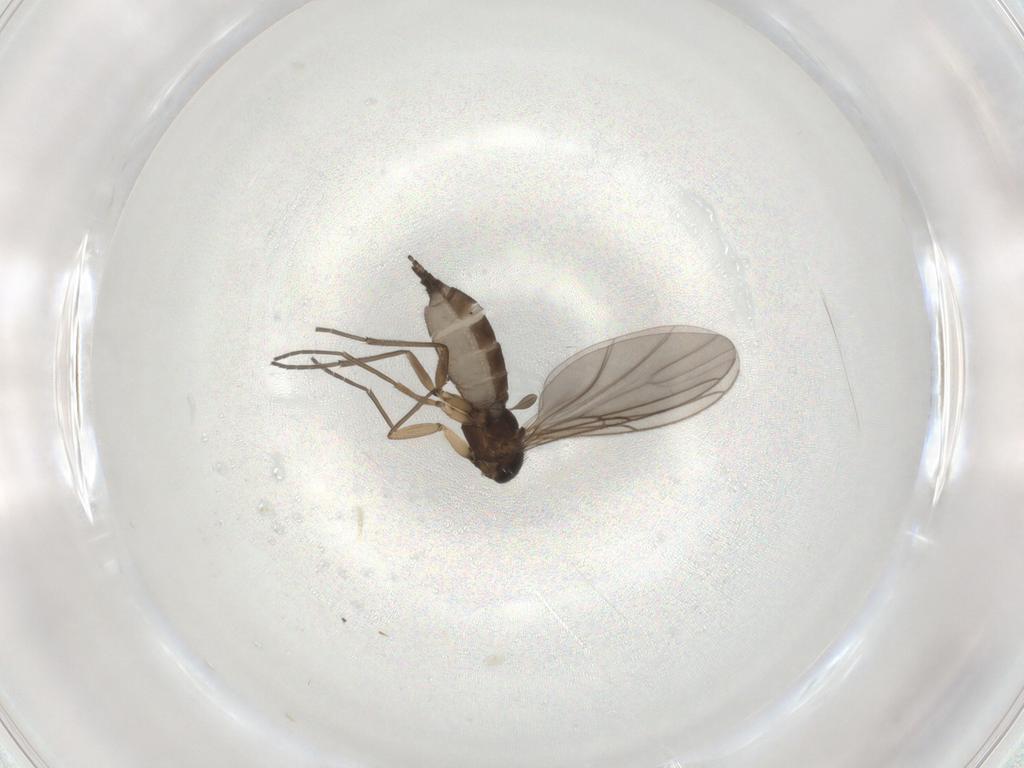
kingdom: Animalia
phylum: Arthropoda
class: Insecta
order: Diptera
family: Sciaridae
